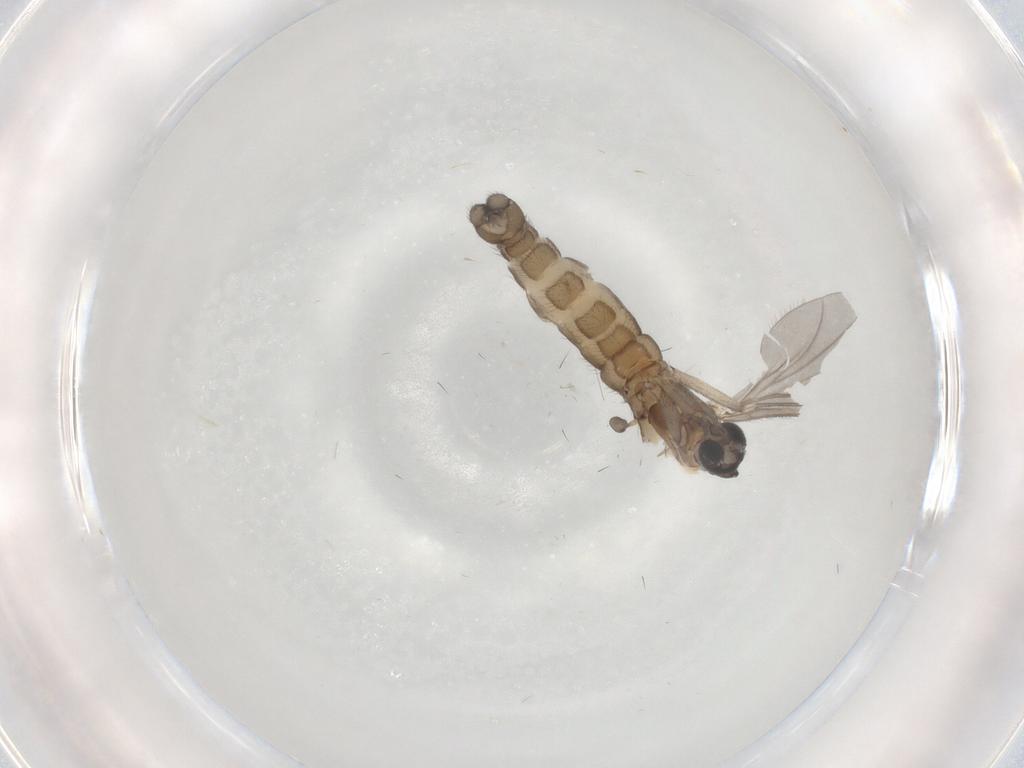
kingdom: Animalia
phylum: Arthropoda
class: Insecta
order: Diptera
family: Sciaridae
